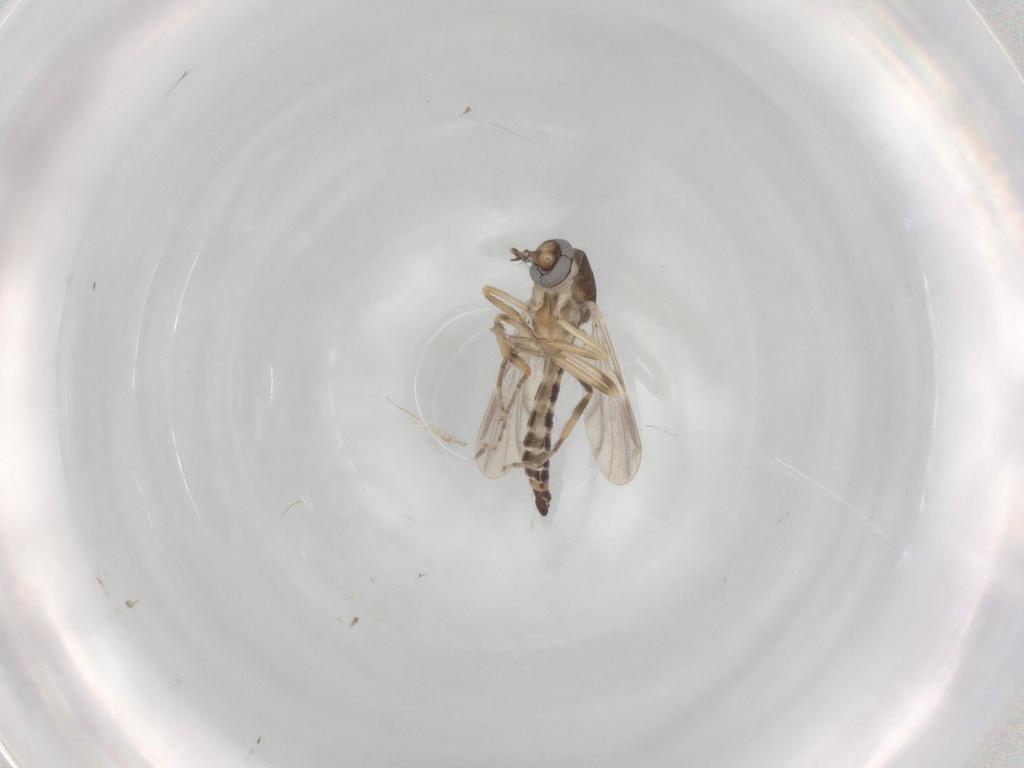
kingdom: Animalia
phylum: Arthropoda
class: Insecta
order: Diptera
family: Ceratopogonidae
